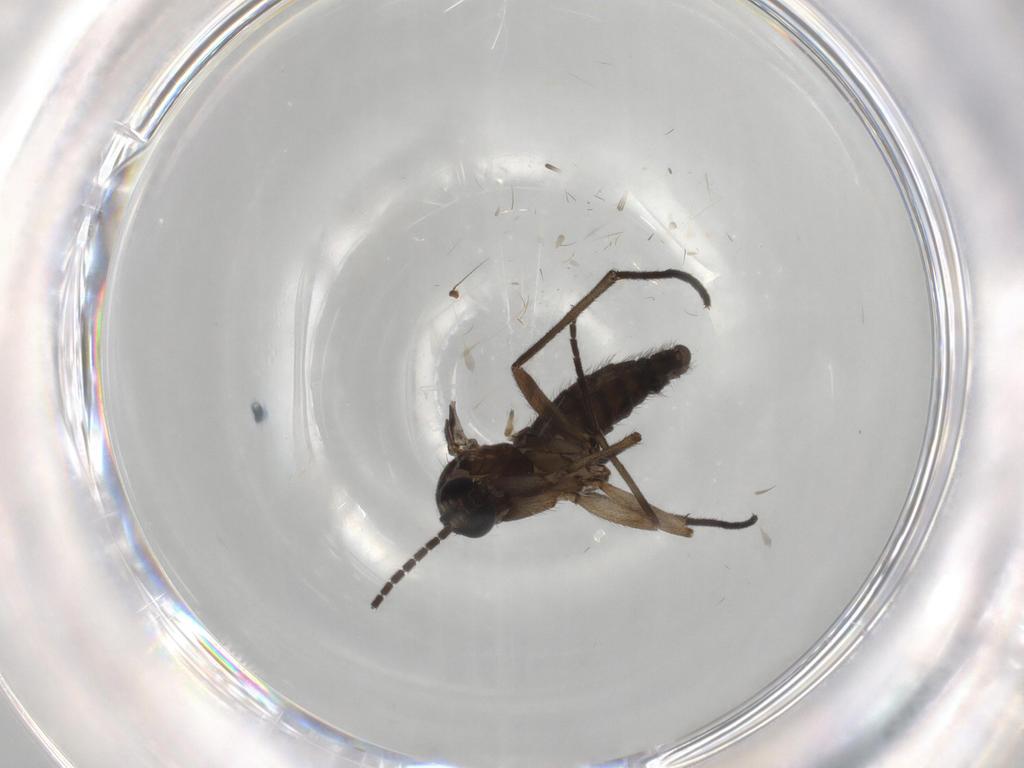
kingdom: Animalia
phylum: Arthropoda
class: Insecta
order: Diptera
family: Sciaridae
